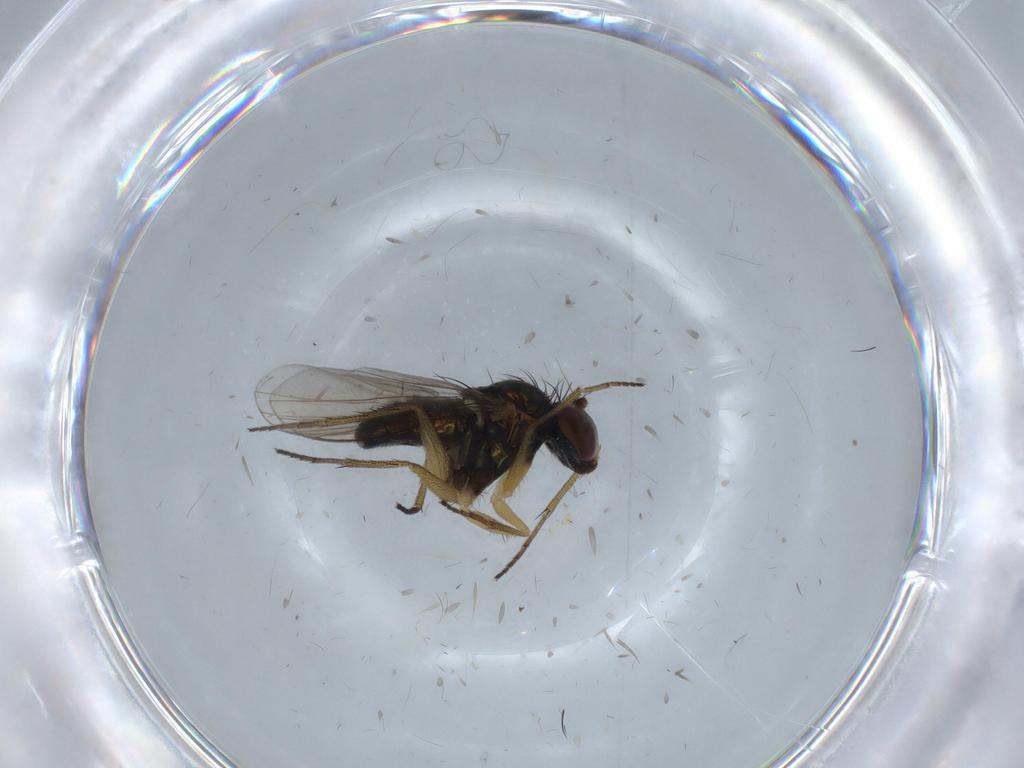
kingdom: Animalia
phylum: Arthropoda
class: Insecta
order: Diptera
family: Dolichopodidae
